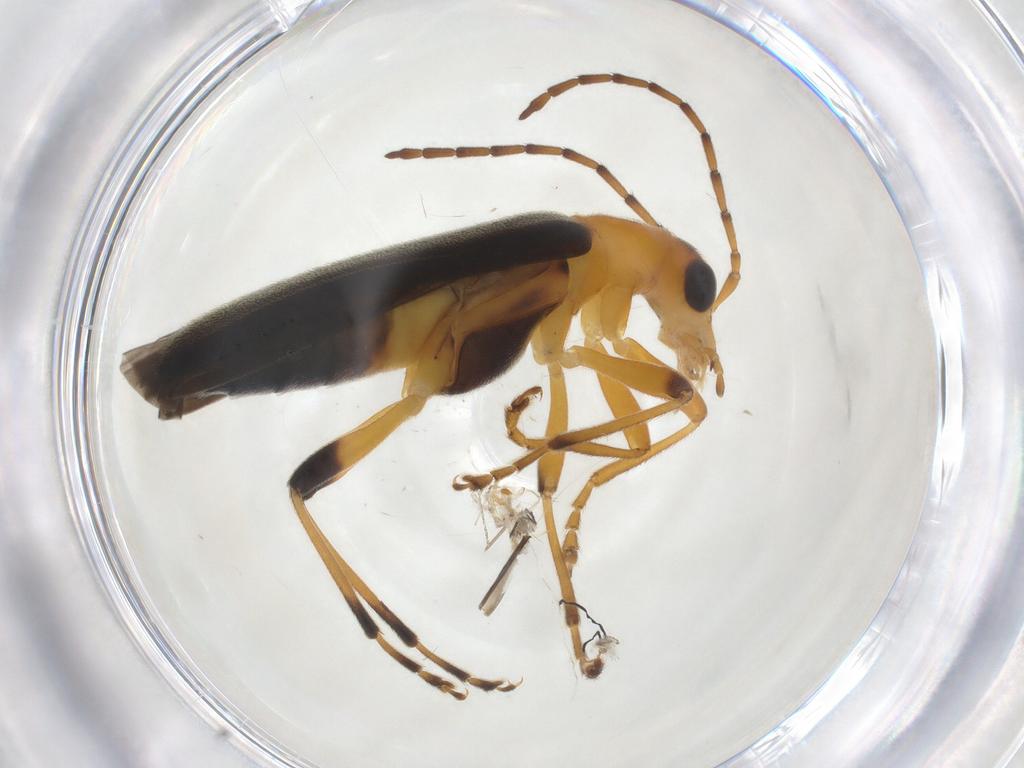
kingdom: Animalia
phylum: Arthropoda
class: Insecta
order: Coleoptera
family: Oedemeridae
